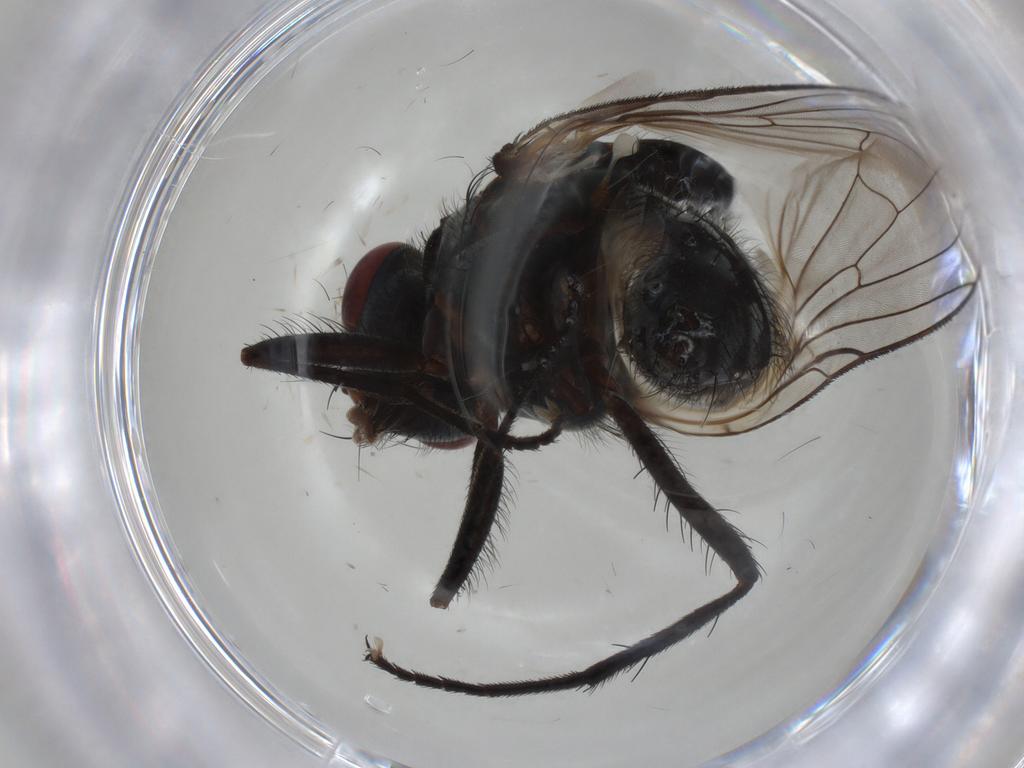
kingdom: Animalia
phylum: Arthropoda
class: Insecta
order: Diptera
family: Anthomyiidae
